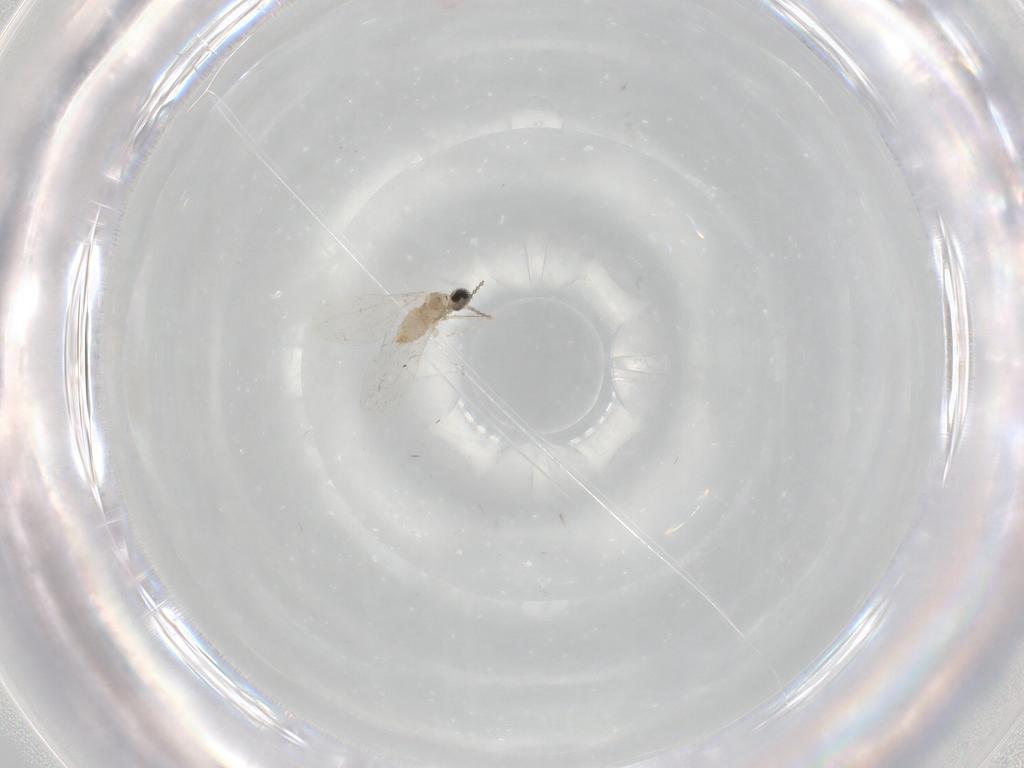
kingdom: Animalia
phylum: Arthropoda
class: Insecta
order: Diptera
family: Cecidomyiidae
